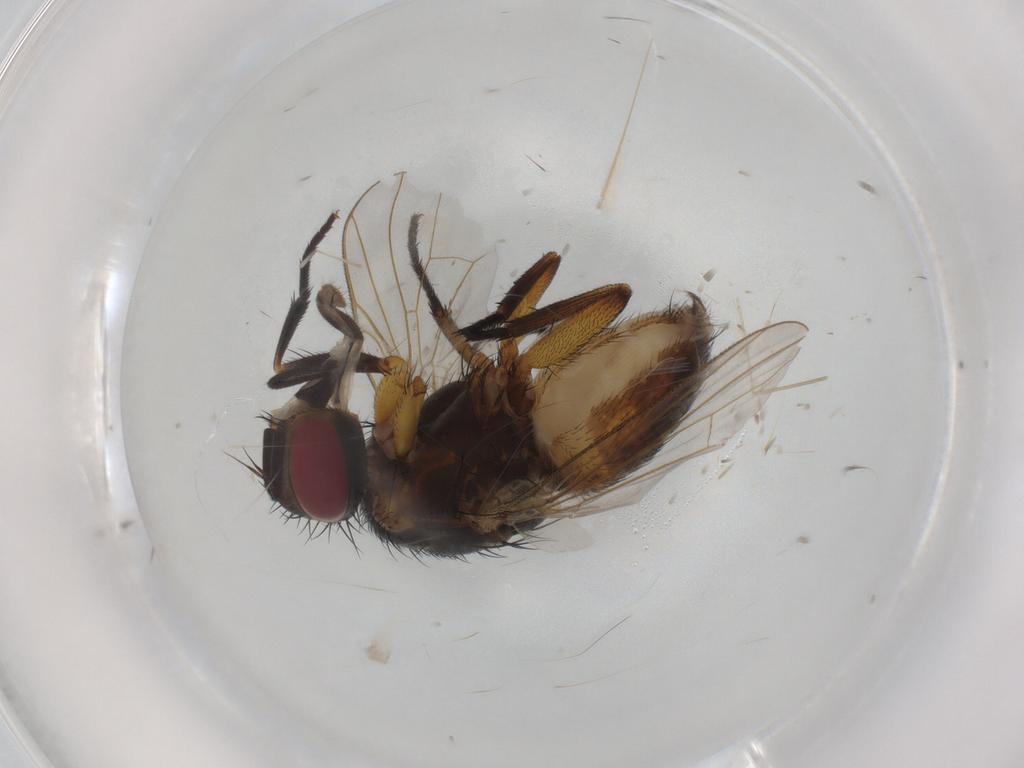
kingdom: Animalia
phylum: Arthropoda
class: Insecta
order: Diptera
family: Muscidae
